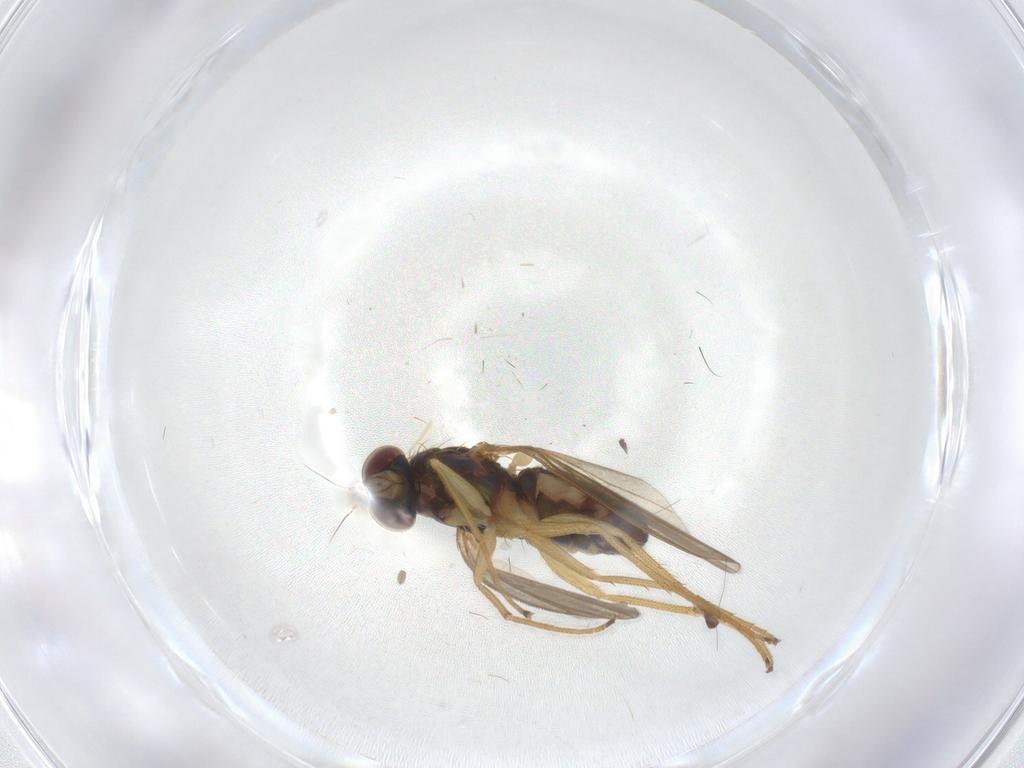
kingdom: Animalia
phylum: Arthropoda
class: Insecta
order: Diptera
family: Dolichopodidae
